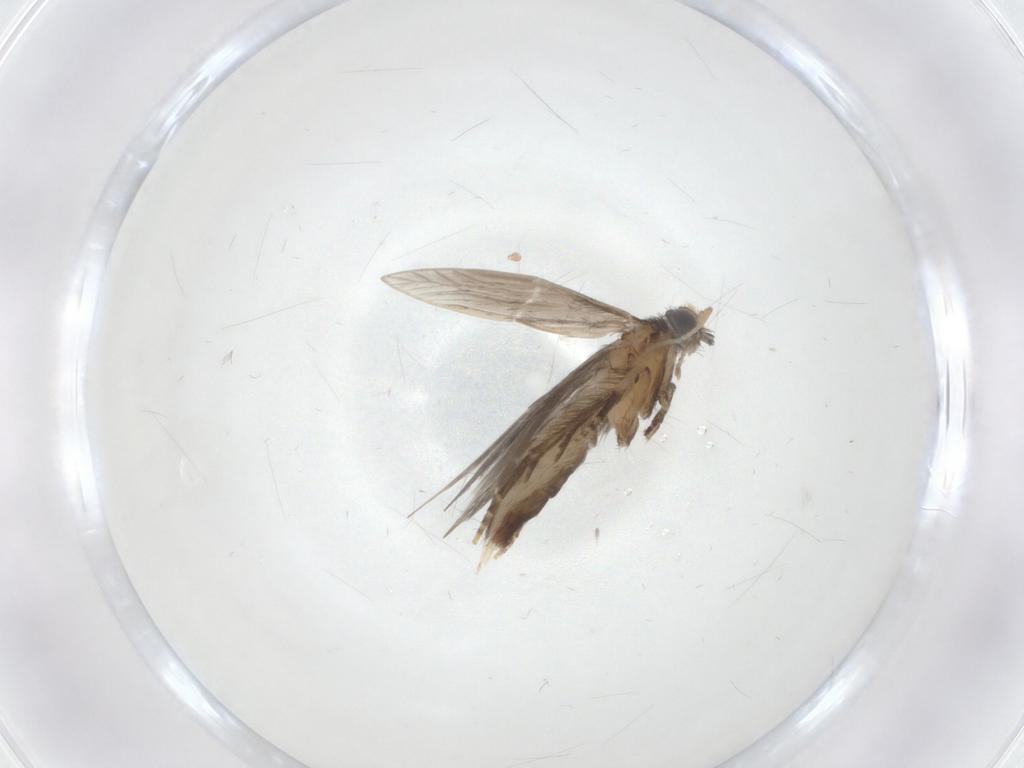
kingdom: Animalia
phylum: Arthropoda
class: Insecta
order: Trichoptera
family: Hydroptilidae
